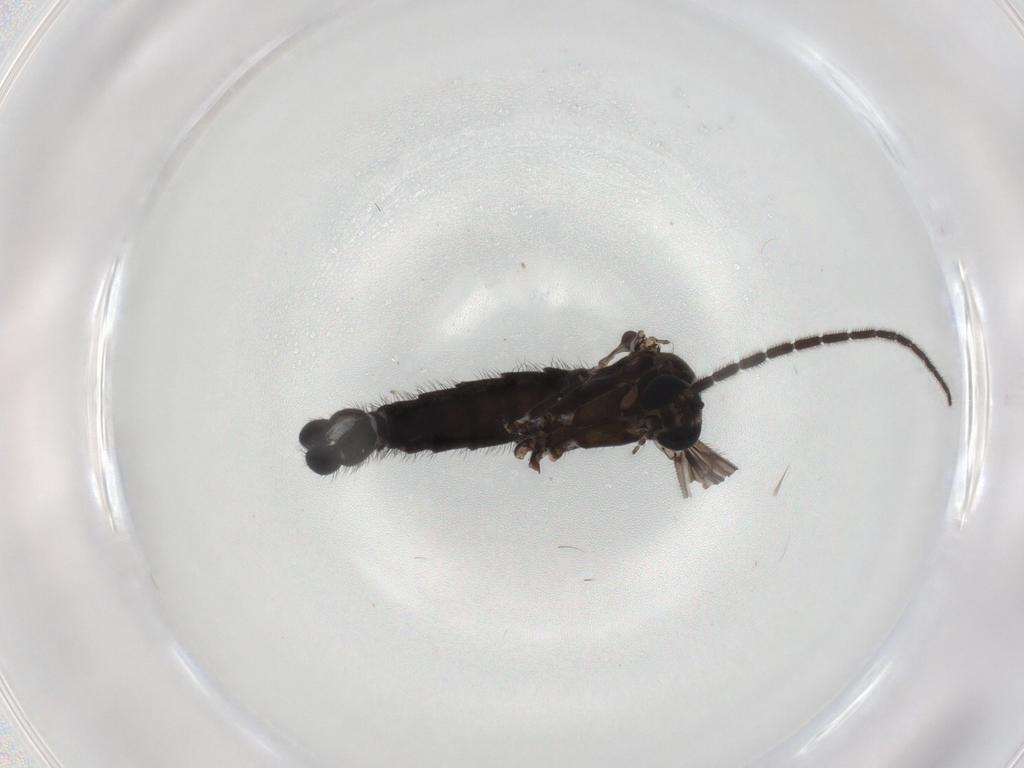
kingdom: Animalia
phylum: Arthropoda
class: Insecta
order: Diptera
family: Sciaridae
